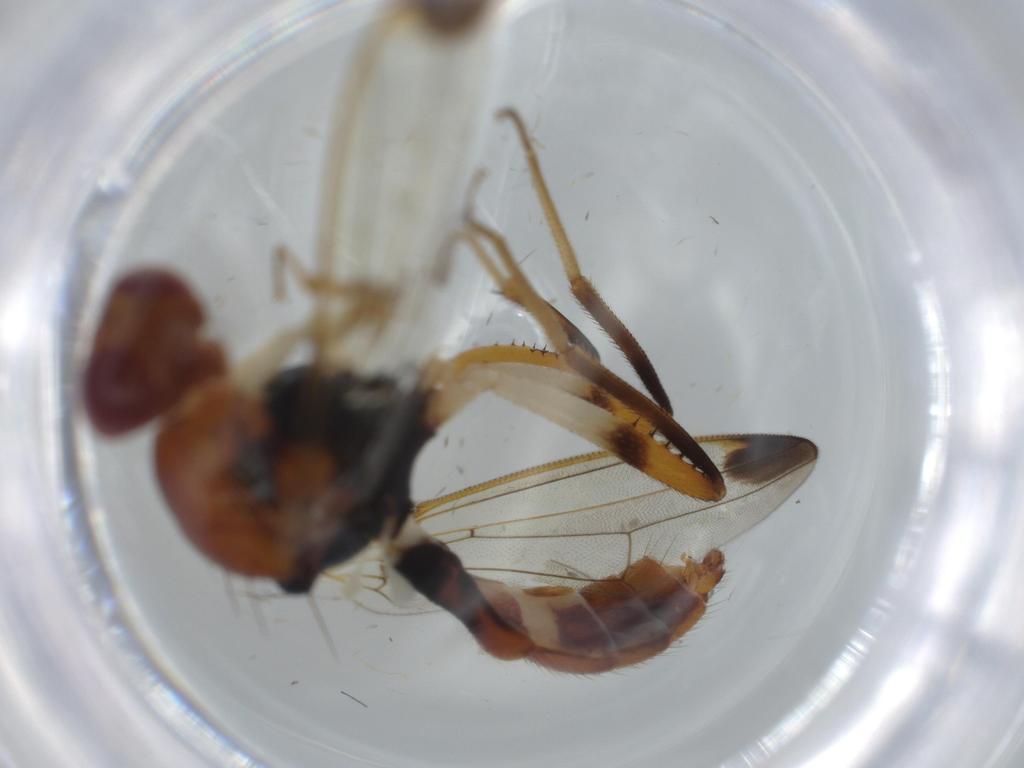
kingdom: Animalia
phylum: Arthropoda
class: Insecta
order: Diptera
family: Richardiidae
